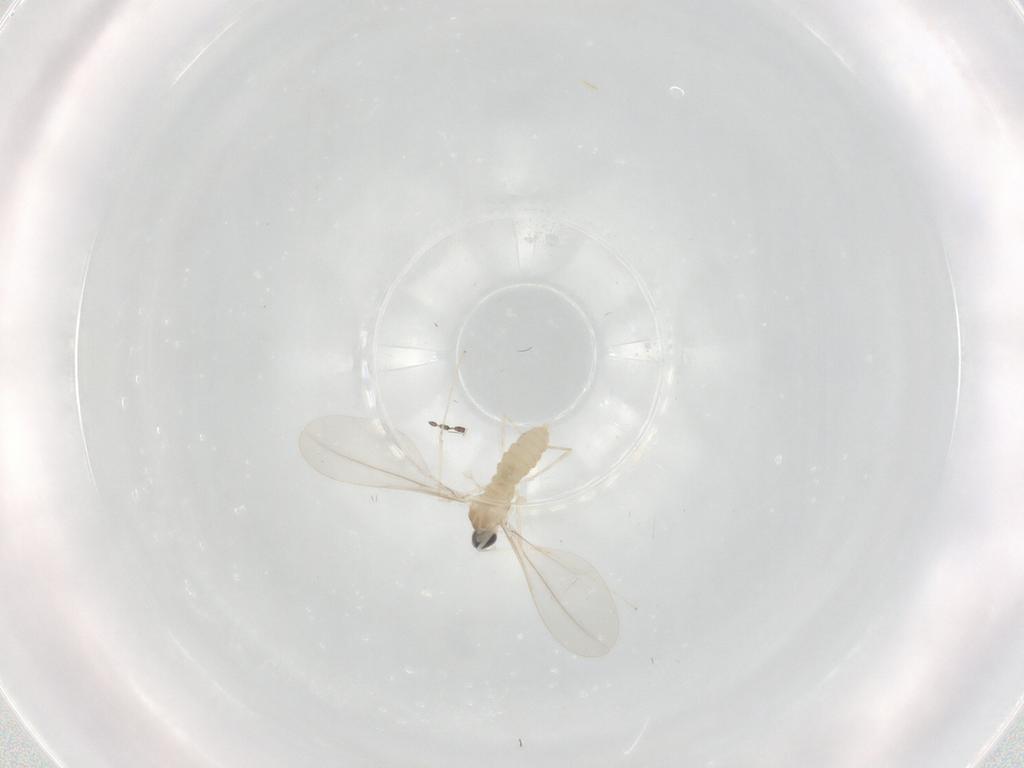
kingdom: Animalia
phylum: Arthropoda
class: Insecta
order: Diptera
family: Cecidomyiidae
